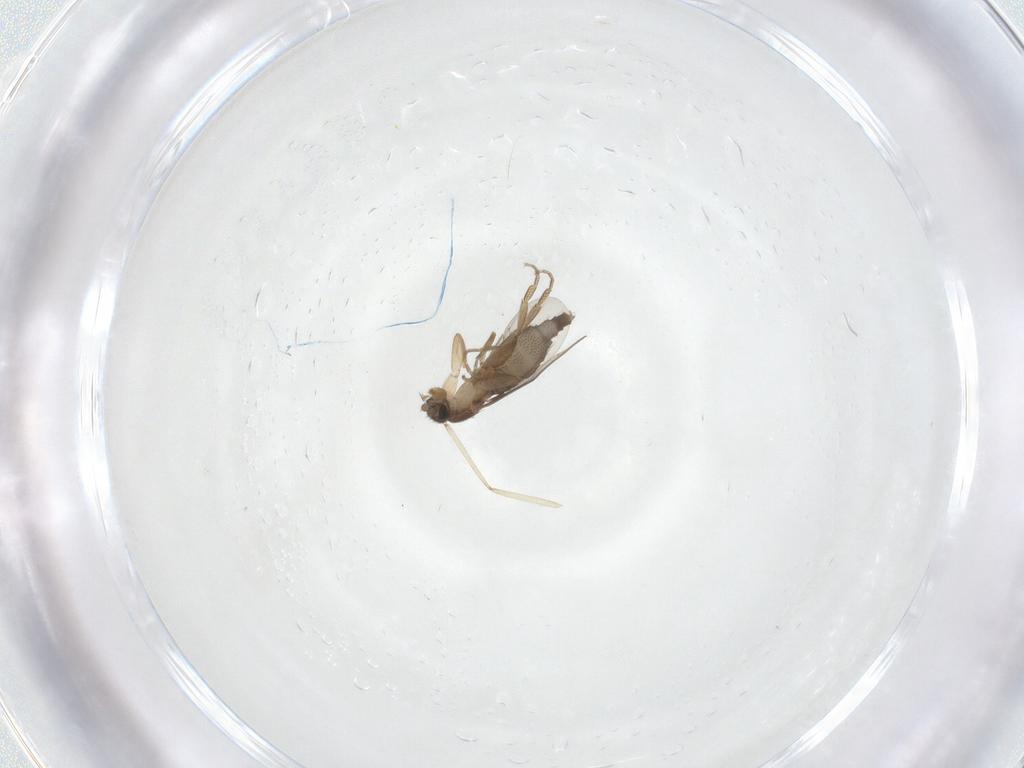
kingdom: Animalia
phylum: Arthropoda
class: Insecta
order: Diptera
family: Cecidomyiidae
